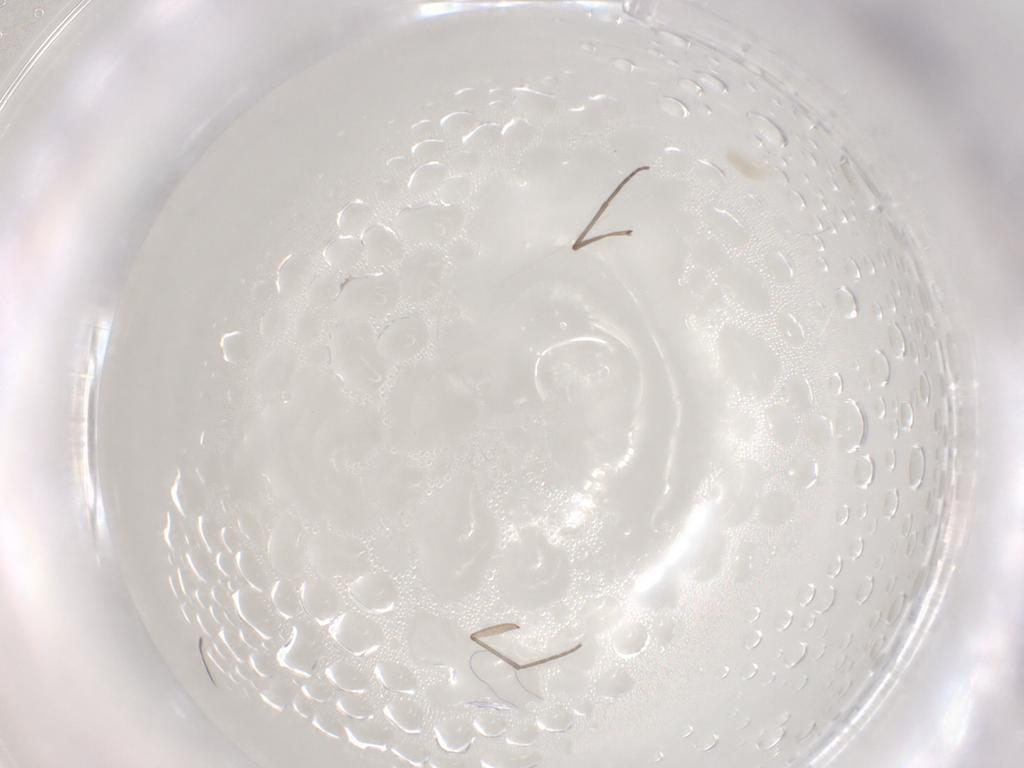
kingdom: Animalia
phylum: Arthropoda
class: Arachnida
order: Trombidiformes
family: Eupodidae
